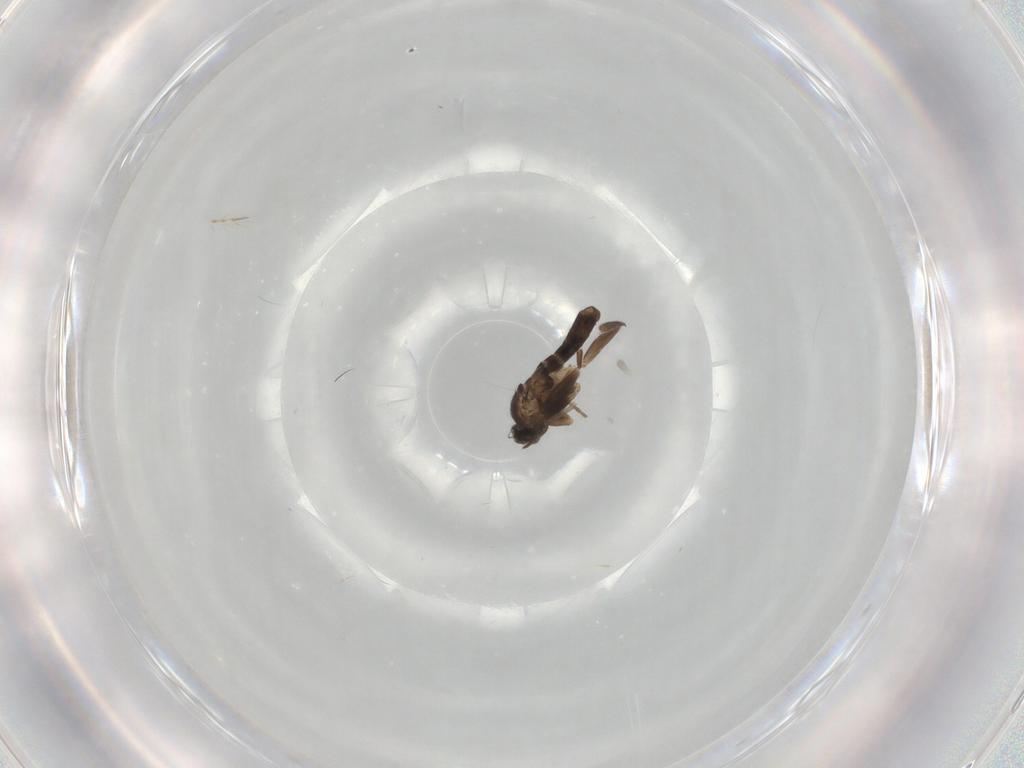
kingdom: Animalia
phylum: Arthropoda
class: Insecta
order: Diptera
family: Chironomidae
